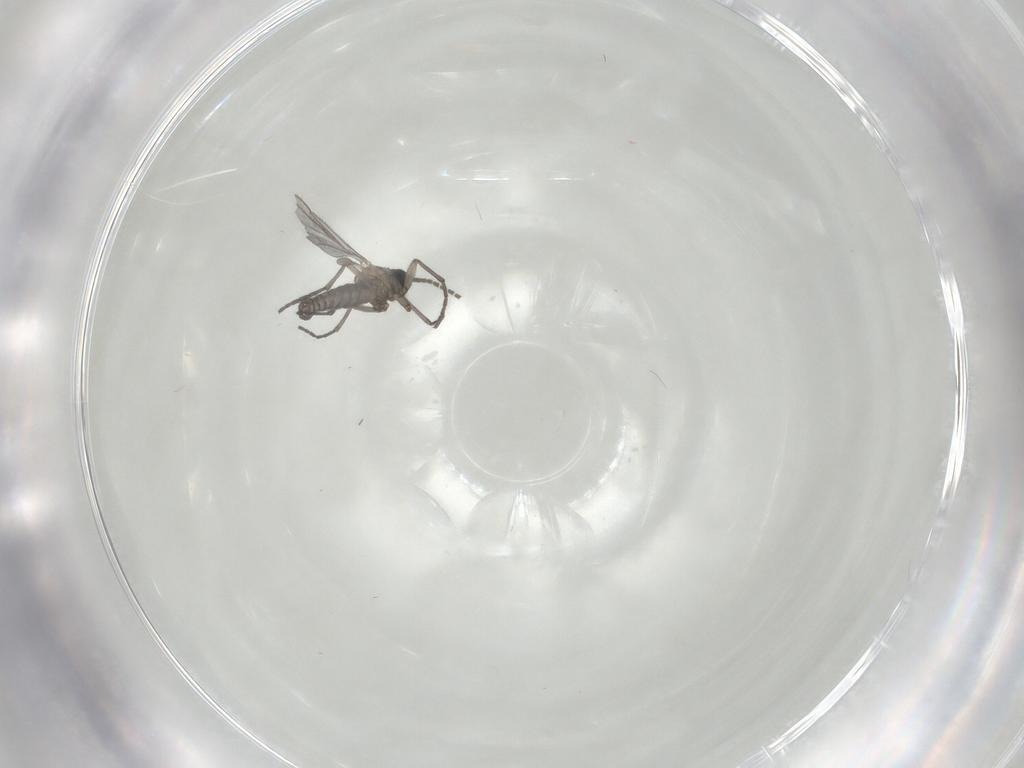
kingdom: Animalia
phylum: Arthropoda
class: Insecta
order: Diptera
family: Sciaridae
